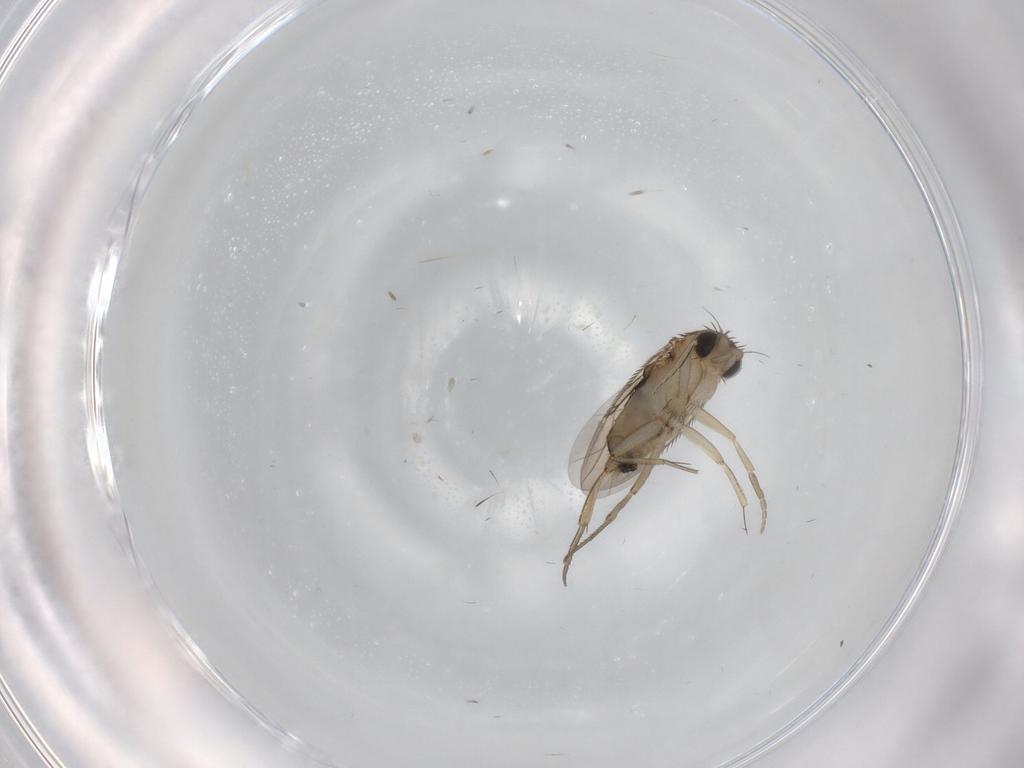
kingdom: Animalia
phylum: Arthropoda
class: Insecta
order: Diptera
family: Phoridae
